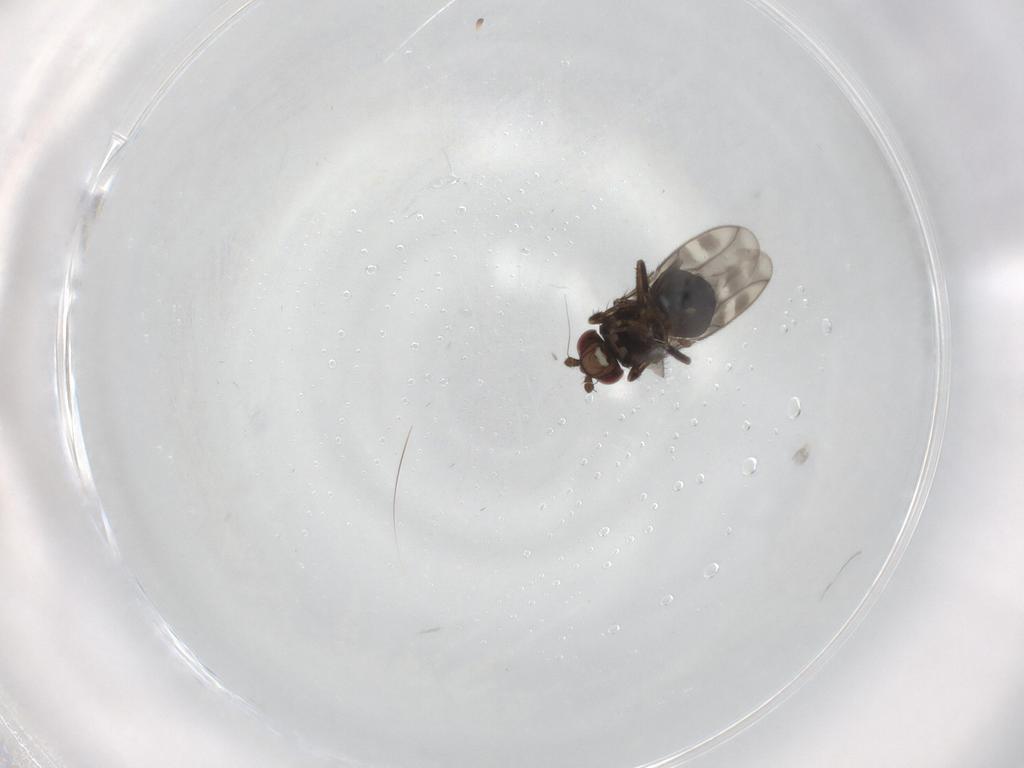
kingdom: Animalia
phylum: Arthropoda
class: Insecta
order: Diptera
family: Sphaeroceridae
